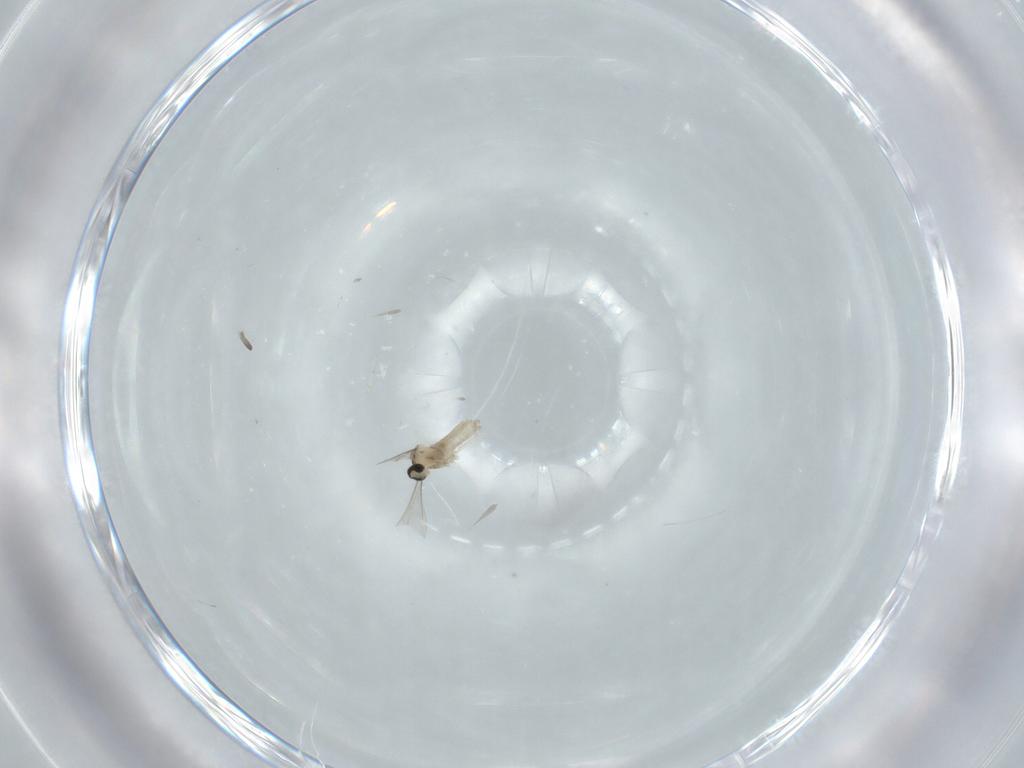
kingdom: Animalia
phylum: Arthropoda
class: Insecta
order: Diptera
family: Cecidomyiidae
